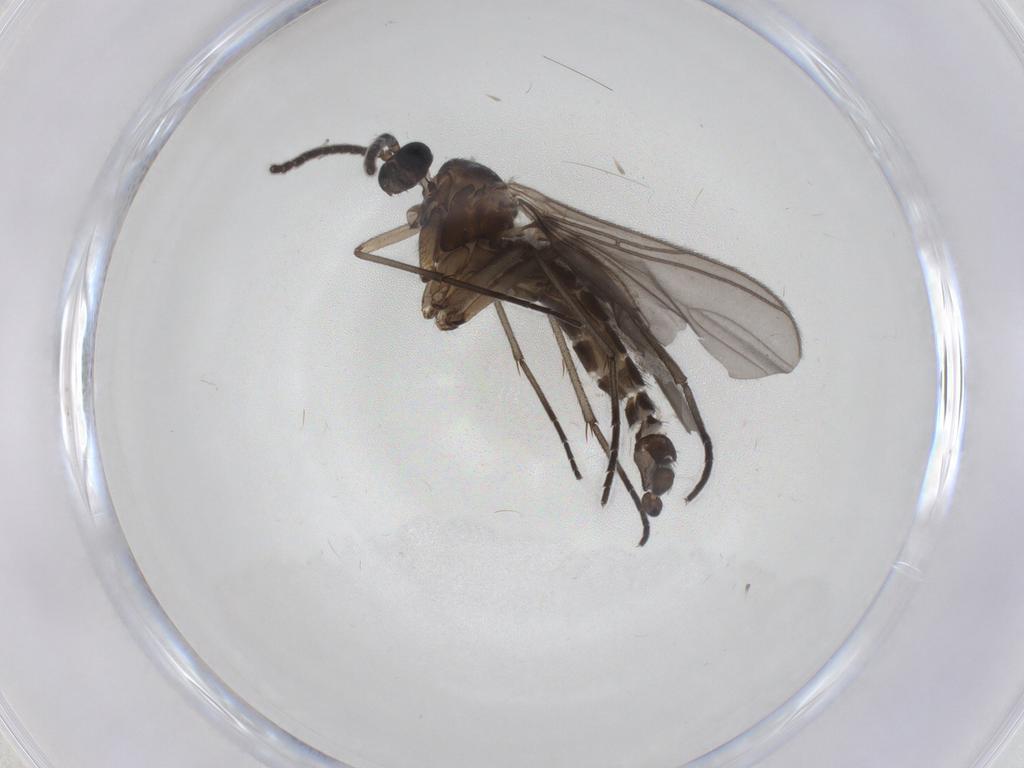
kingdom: Animalia
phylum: Arthropoda
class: Insecta
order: Diptera
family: Sciaridae
